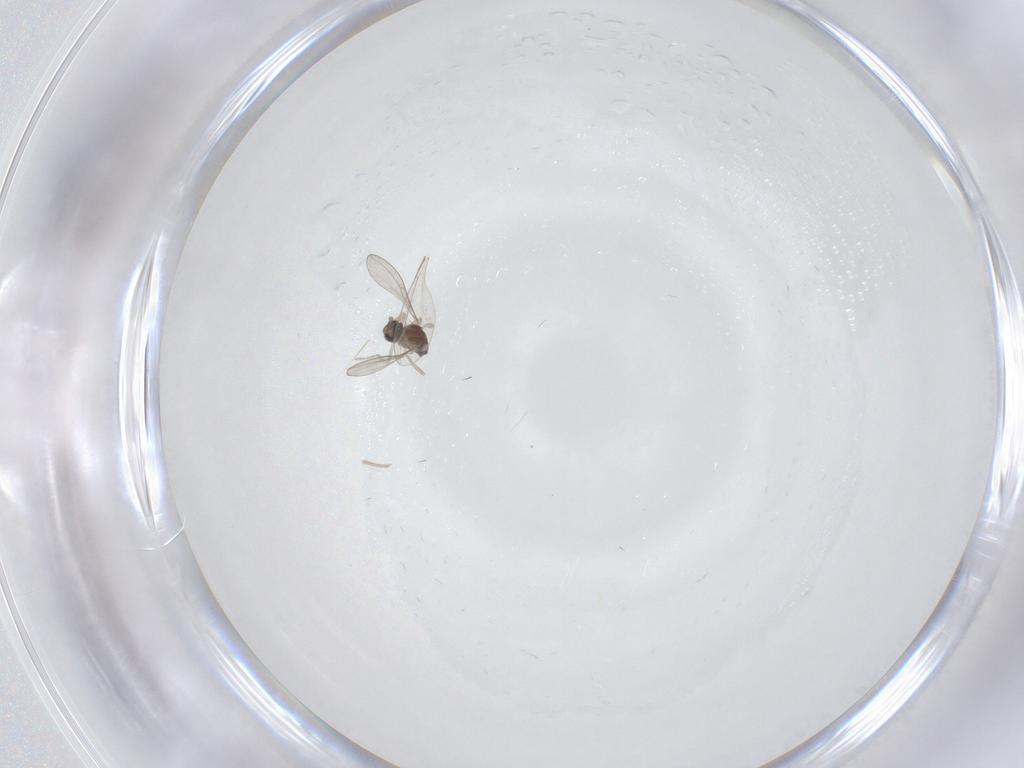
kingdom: Animalia
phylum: Arthropoda
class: Insecta
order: Diptera
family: Cecidomyiidae
